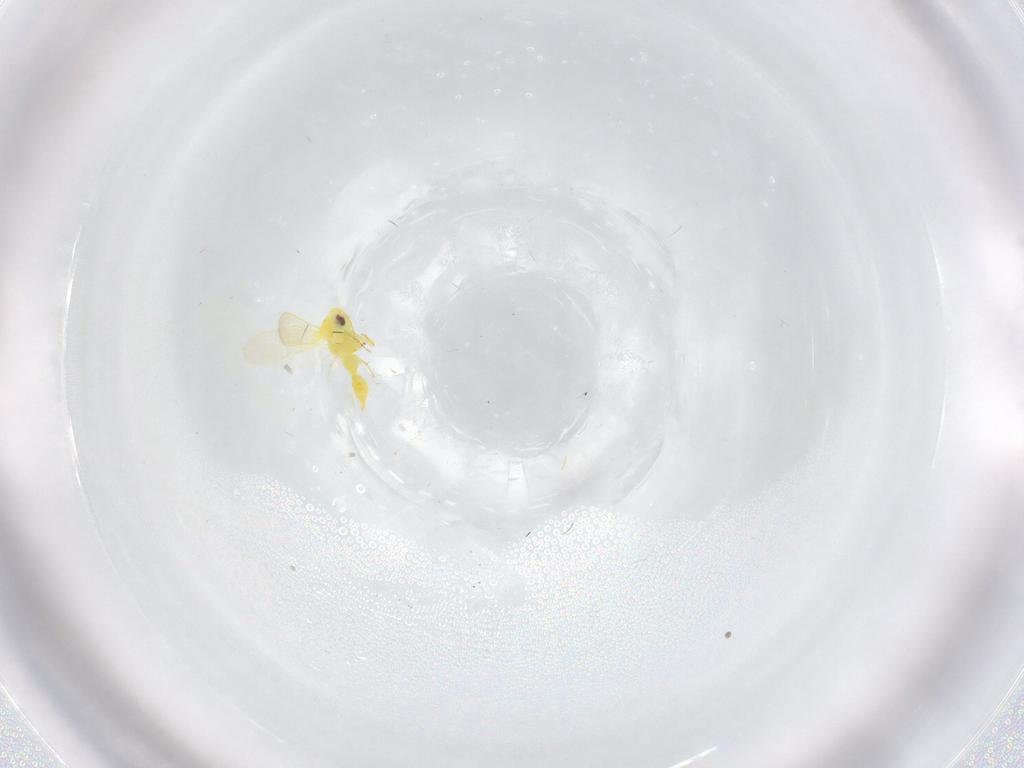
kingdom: Animalia
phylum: Arthropoda
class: Insecta
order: Hemiptera
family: Aleyrodidae
